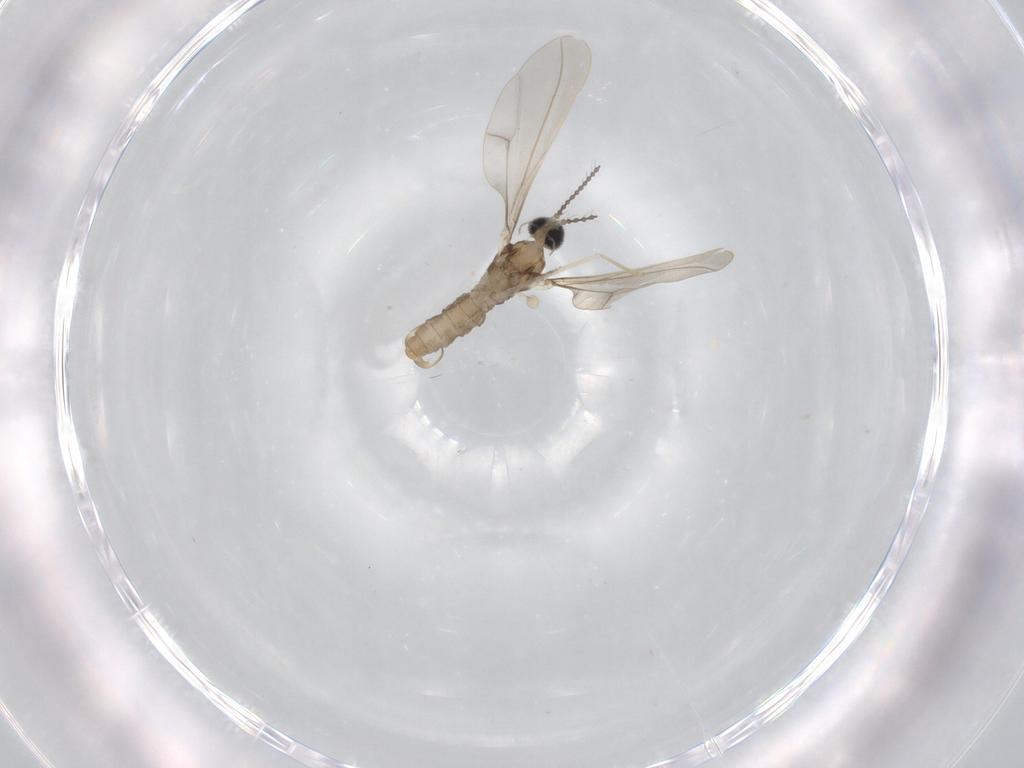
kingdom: Animalia
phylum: Arthropoda
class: Insecta
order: Diptera
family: Cecidomyiidae
